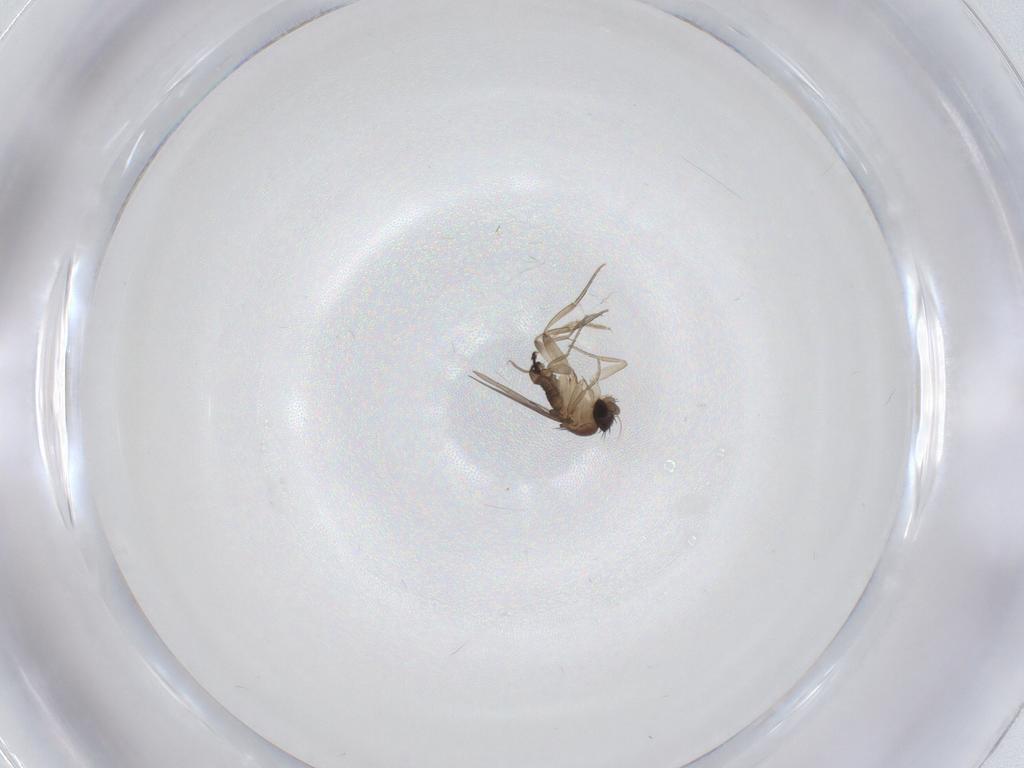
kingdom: Animalia
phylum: Arthropoda
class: Insecta
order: Diptera
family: Phoridae
